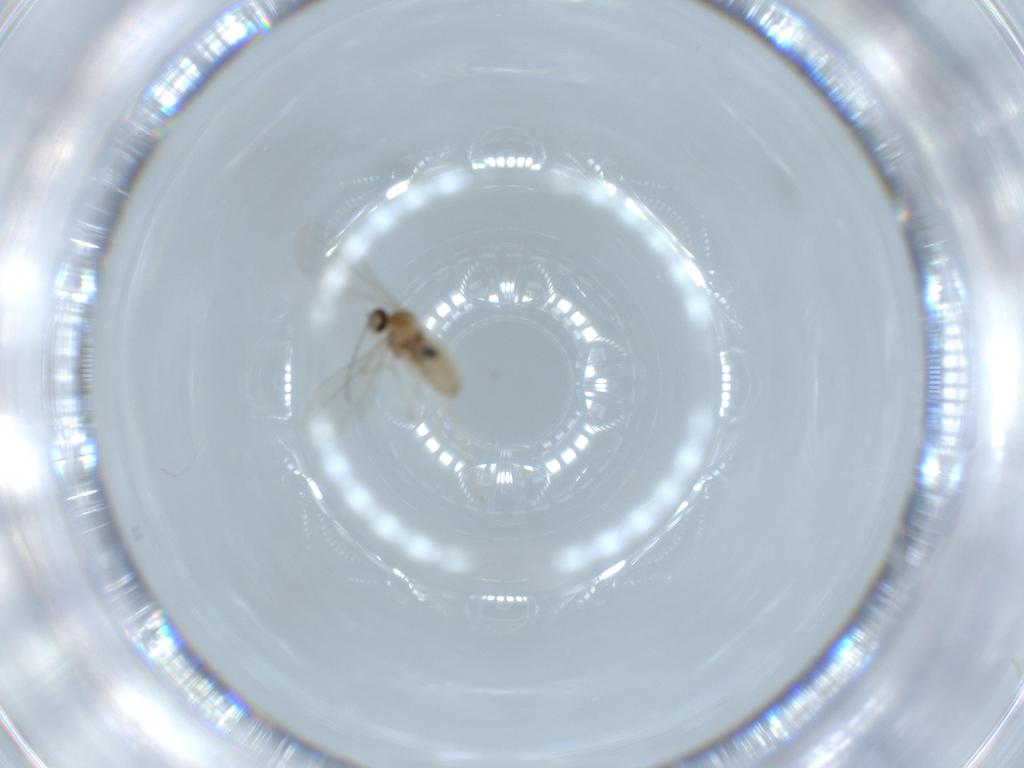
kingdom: Animalia
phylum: Arthropoda
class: Insecta
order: Diptera
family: Cecidomyiidae
